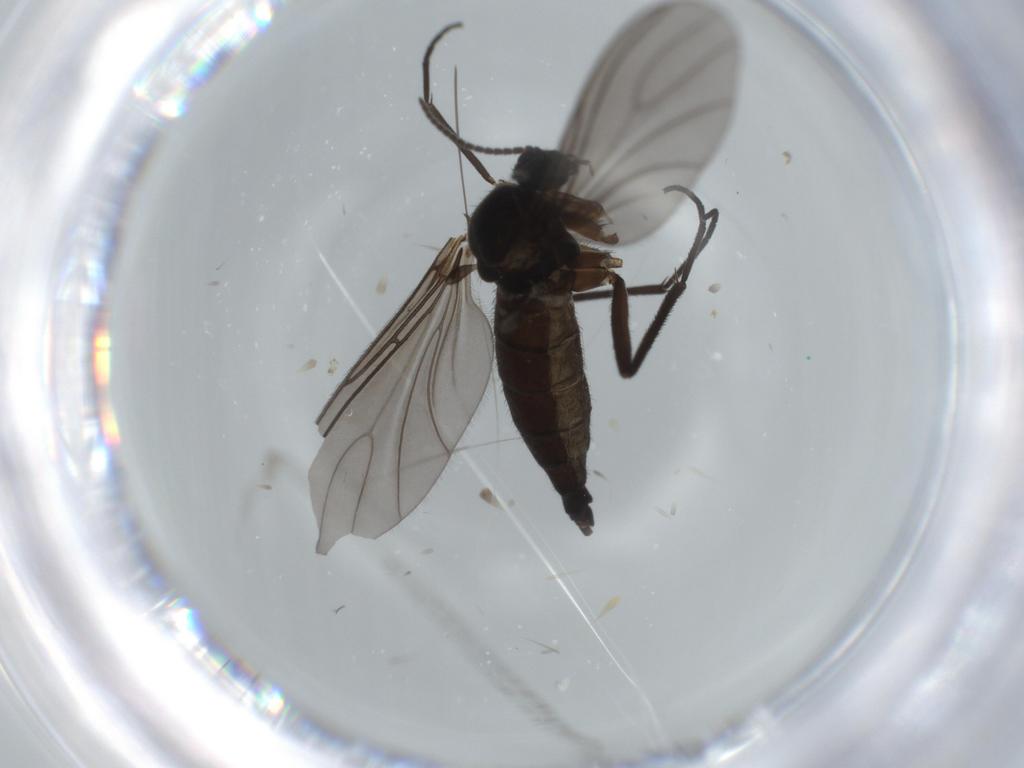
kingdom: Animalia
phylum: Arthropoda
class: Insecta
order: Diptera
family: Sciaridae
